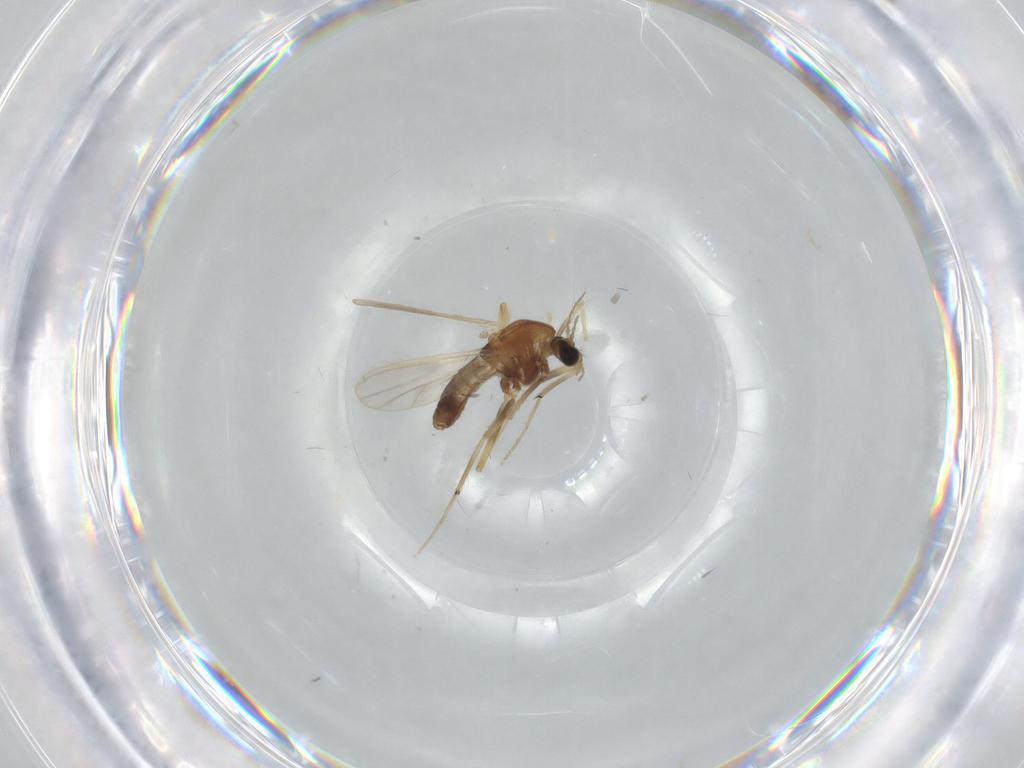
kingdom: Animalia
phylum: Arthropoda
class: Insecta
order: Diptera
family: Chironomidae
